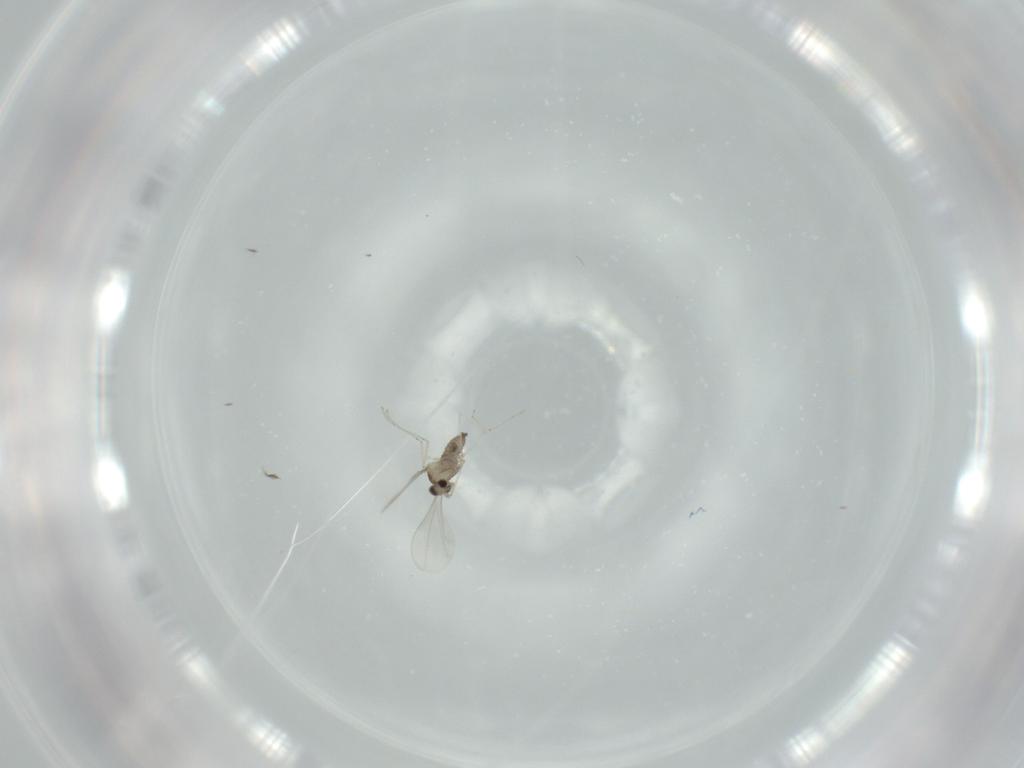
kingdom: Animalia
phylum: Arthropoda
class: Insecta
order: Diptera
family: Cecidomyiidae
